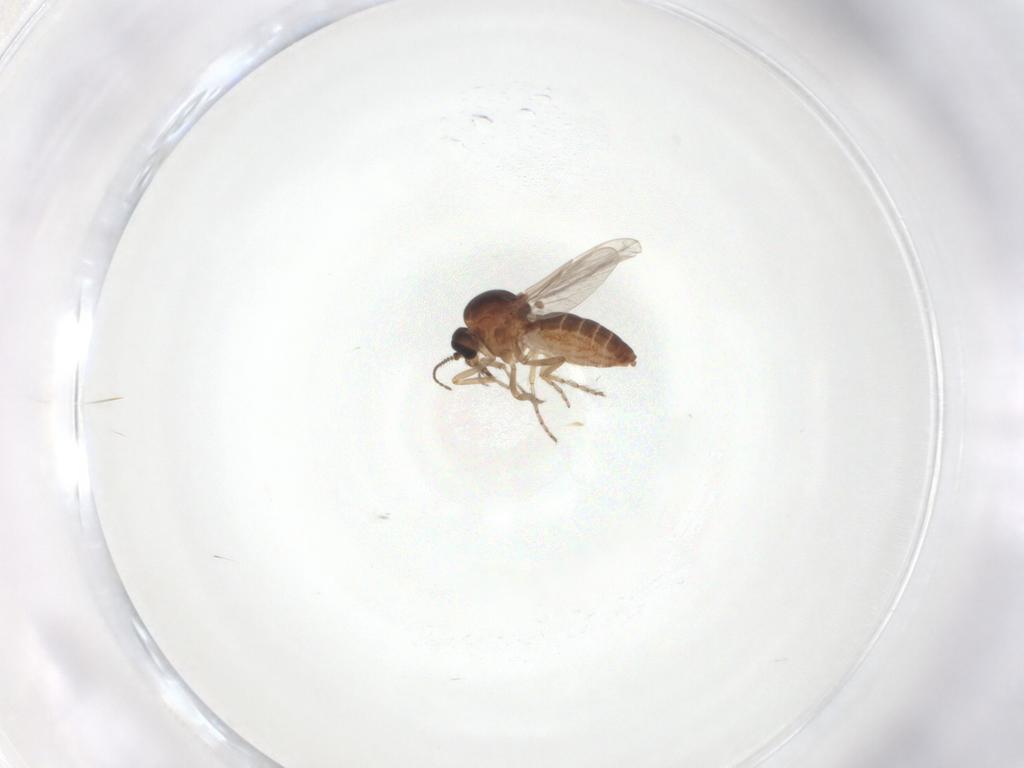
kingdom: Animalia
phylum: Arthropoda
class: Insecta
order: Diptera
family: Ceratopogonidae
